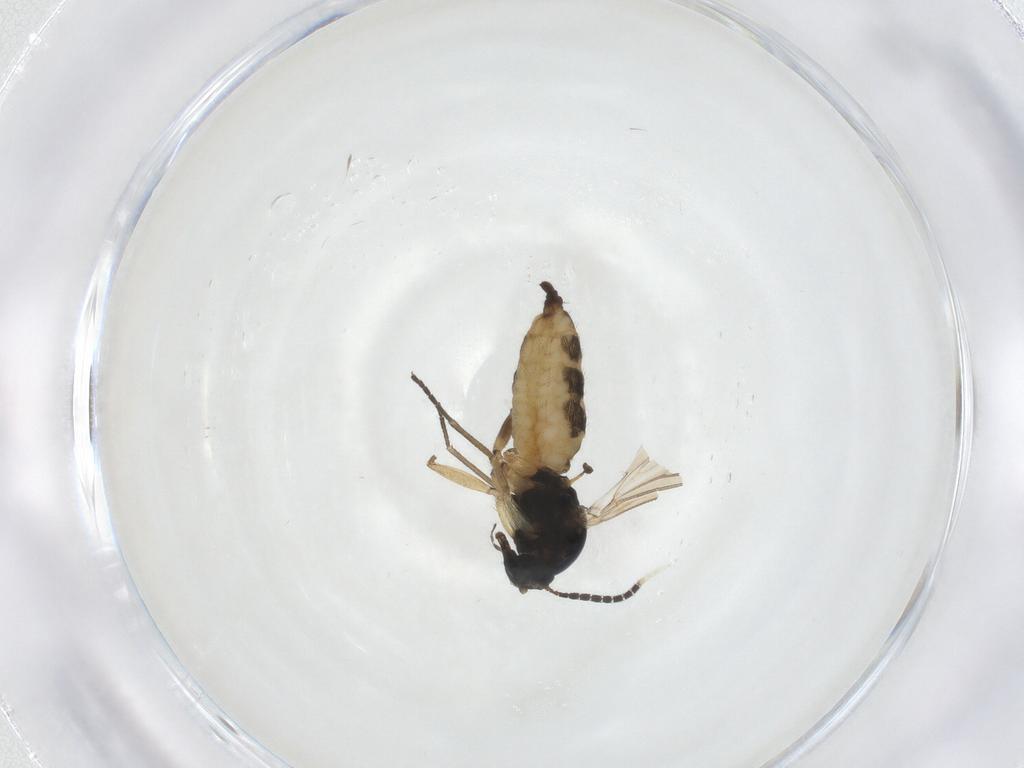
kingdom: Animalia
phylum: Arthropoda
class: Insecta
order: Diptera
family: Sciaridae
